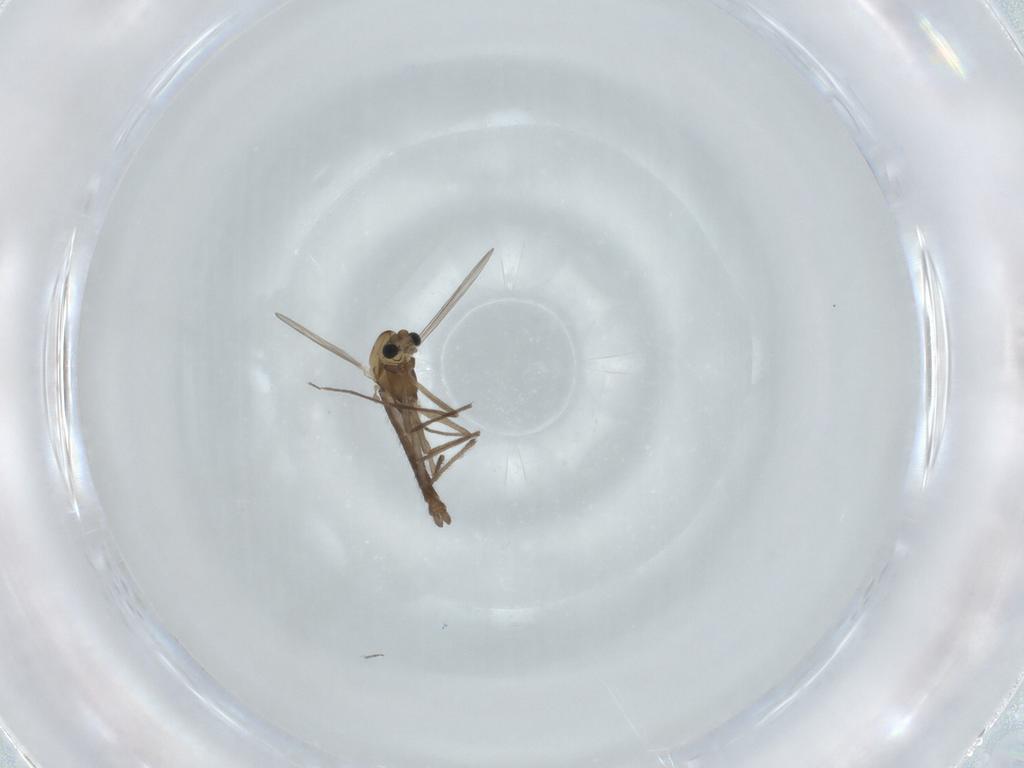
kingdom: Animalia
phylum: Arthropoda
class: Insecta
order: Diptera
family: Chironomidae
